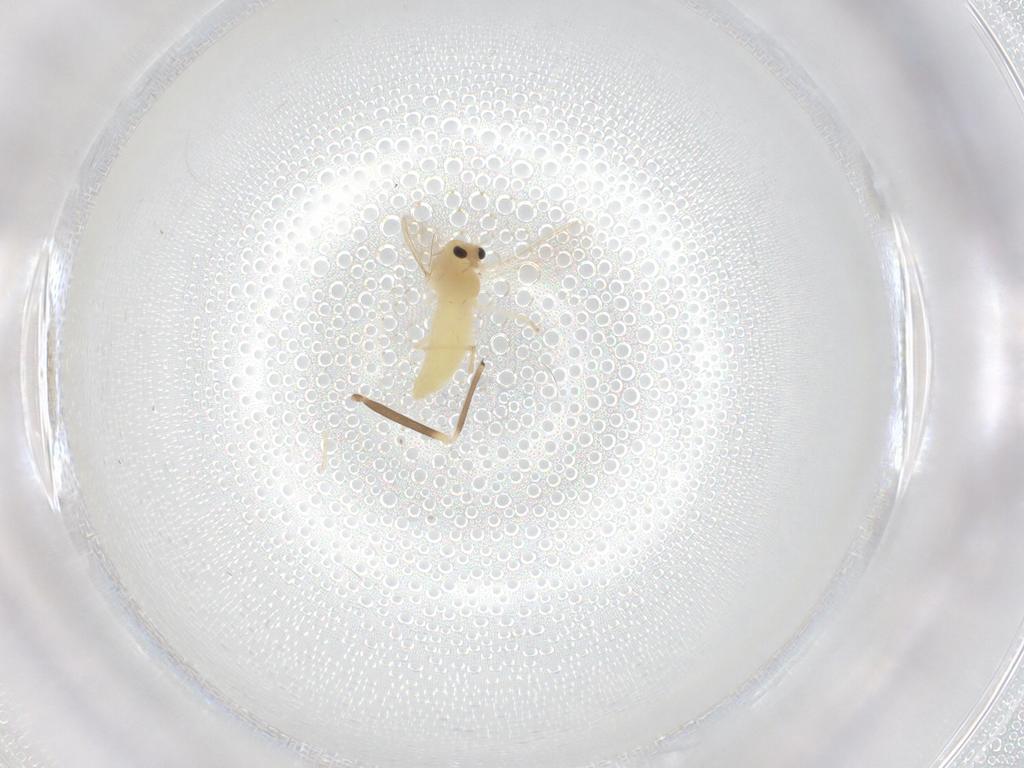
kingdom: Animalia
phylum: Arthropoda
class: Insecta
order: Diptera
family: Chironomidae
